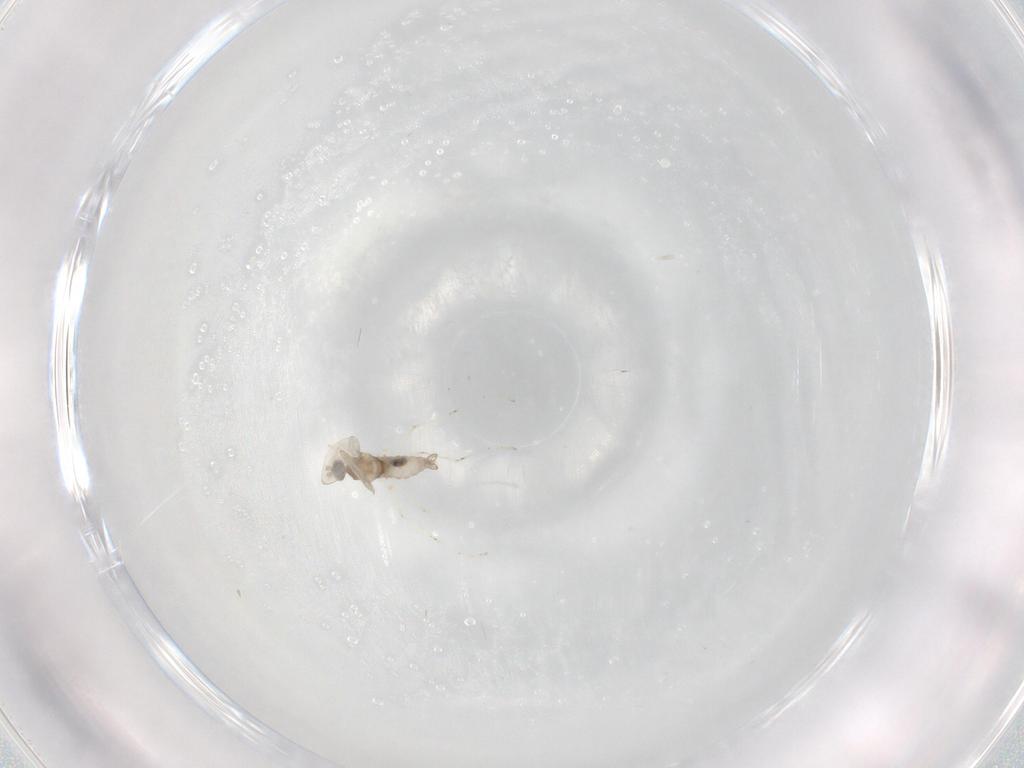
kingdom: Animalia
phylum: Arthropoda
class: Insecta
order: Diptera
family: Cecidomyiidae
